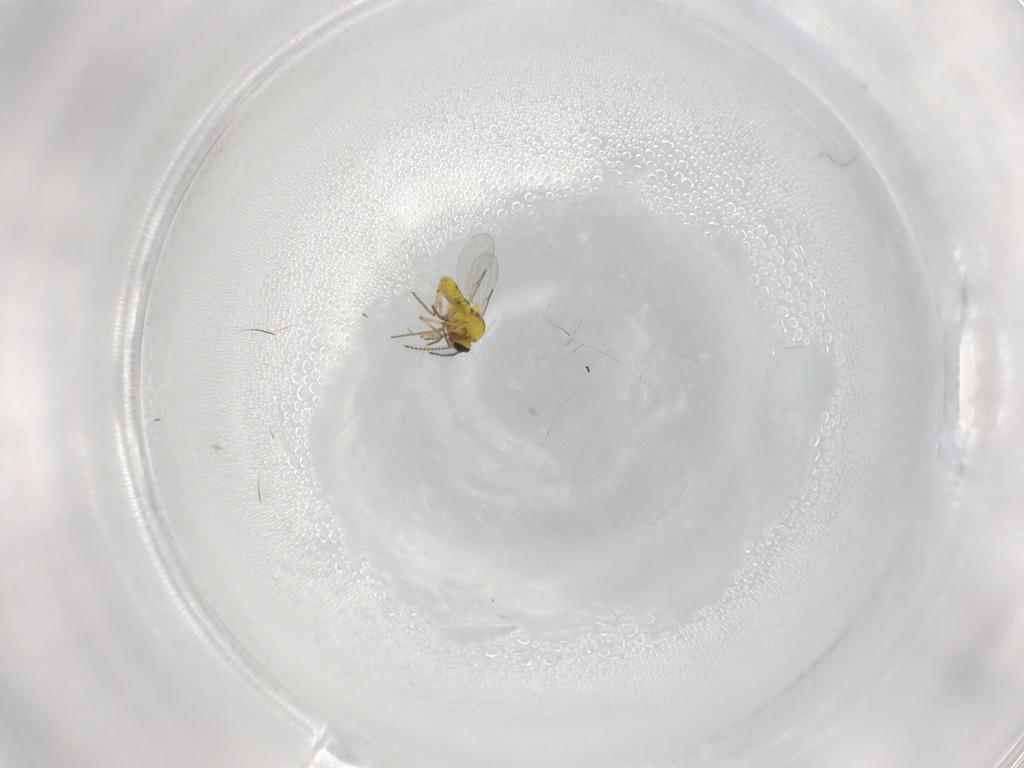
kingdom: Animalia
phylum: Arthropoda
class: Insecta
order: Diptera
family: Ceratopogonidae
